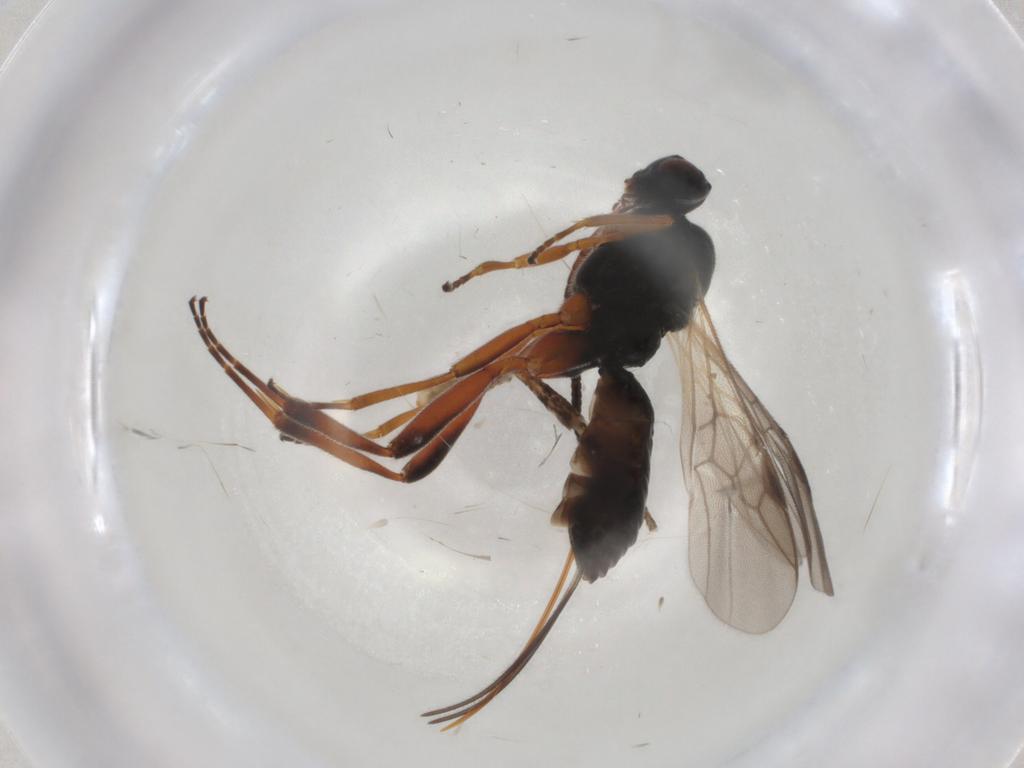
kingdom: Animalia
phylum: Arthropoda
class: Insecta
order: Hymenoptera
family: Braconidae
